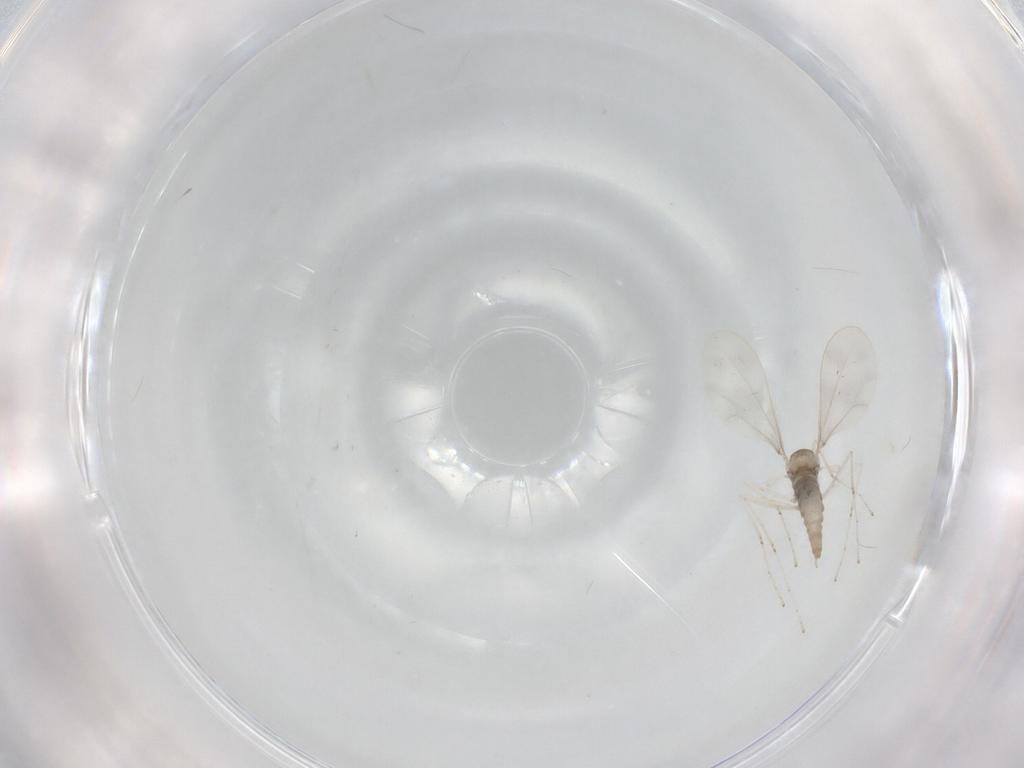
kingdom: Animalia
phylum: Arthropoda
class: Insecta
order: Diptera
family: Cecidomyiidae
